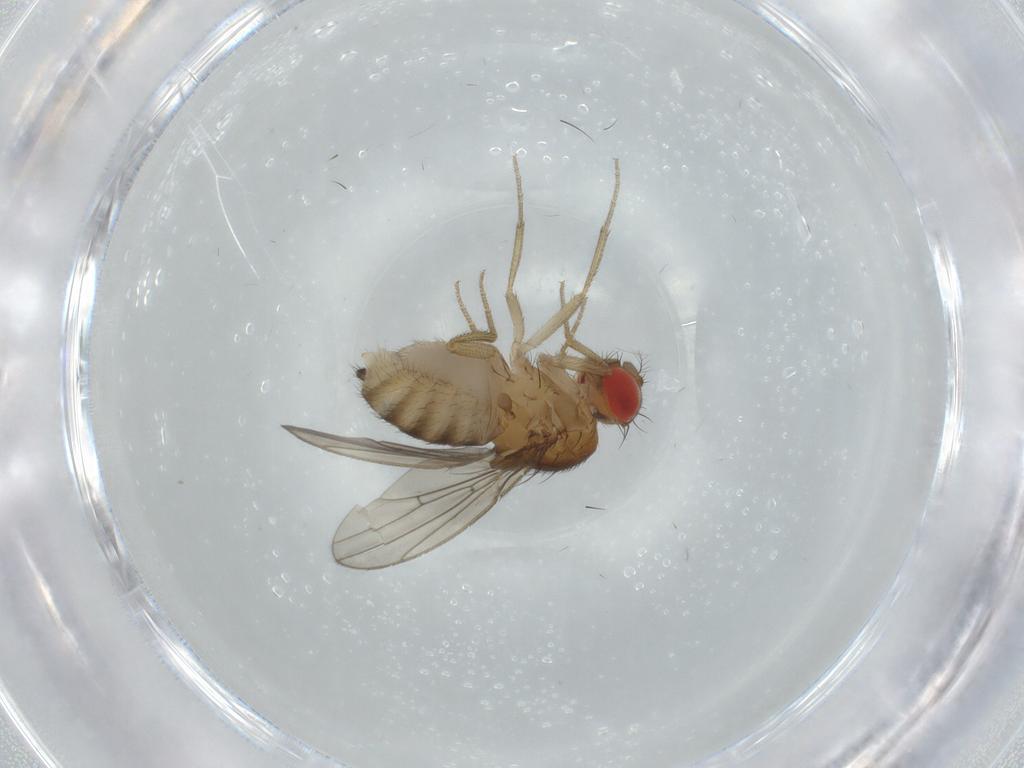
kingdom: Animalia
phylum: Arthropoda
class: Insecta
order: Diptera
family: Drosophilidae
